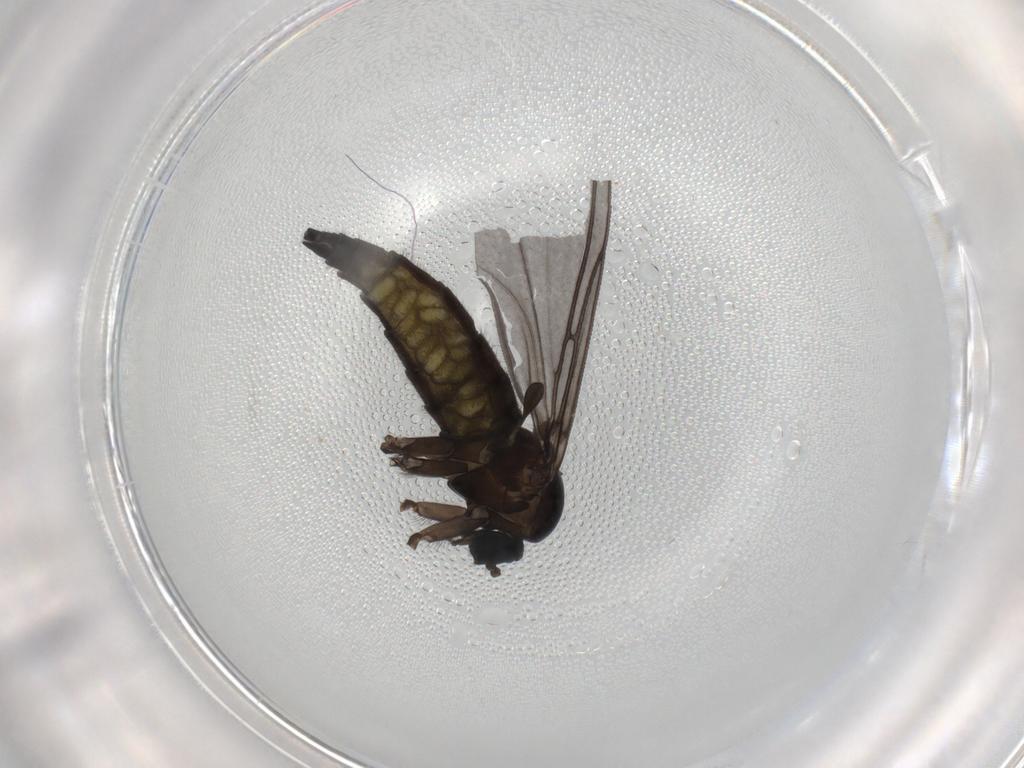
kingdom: Animalia
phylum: Arthropoda
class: Insecta
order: Diptera
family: Sciaridae
